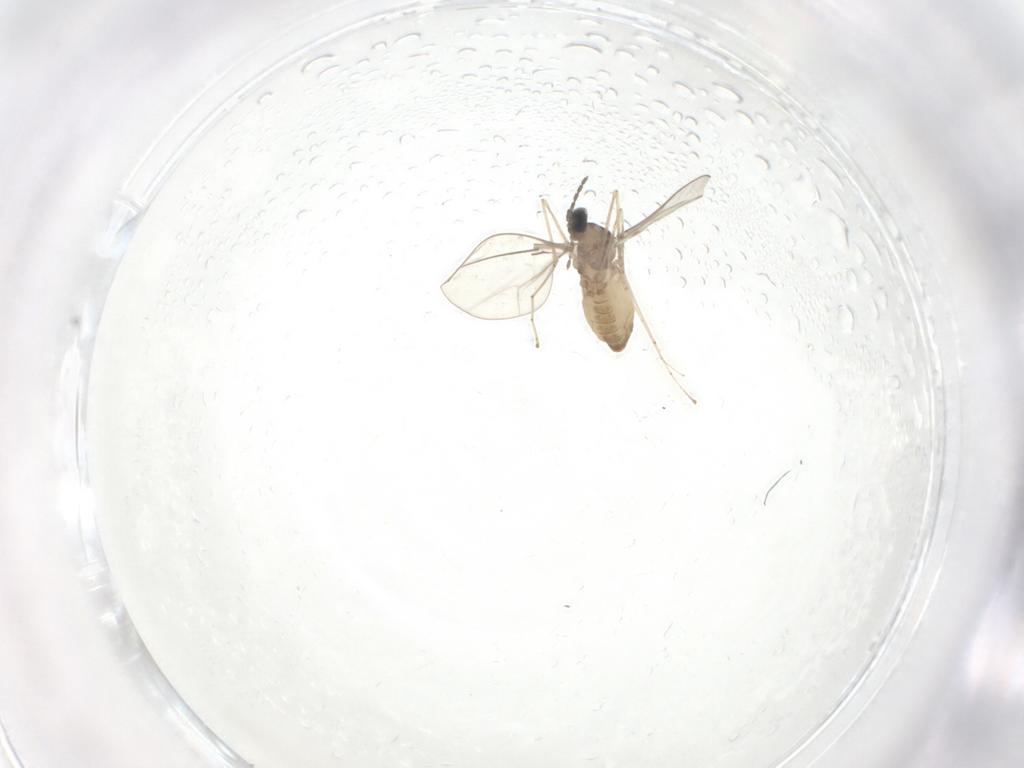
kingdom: Animalia
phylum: Arthropoda
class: Insecta
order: Diptera
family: Cecidomyiidae
